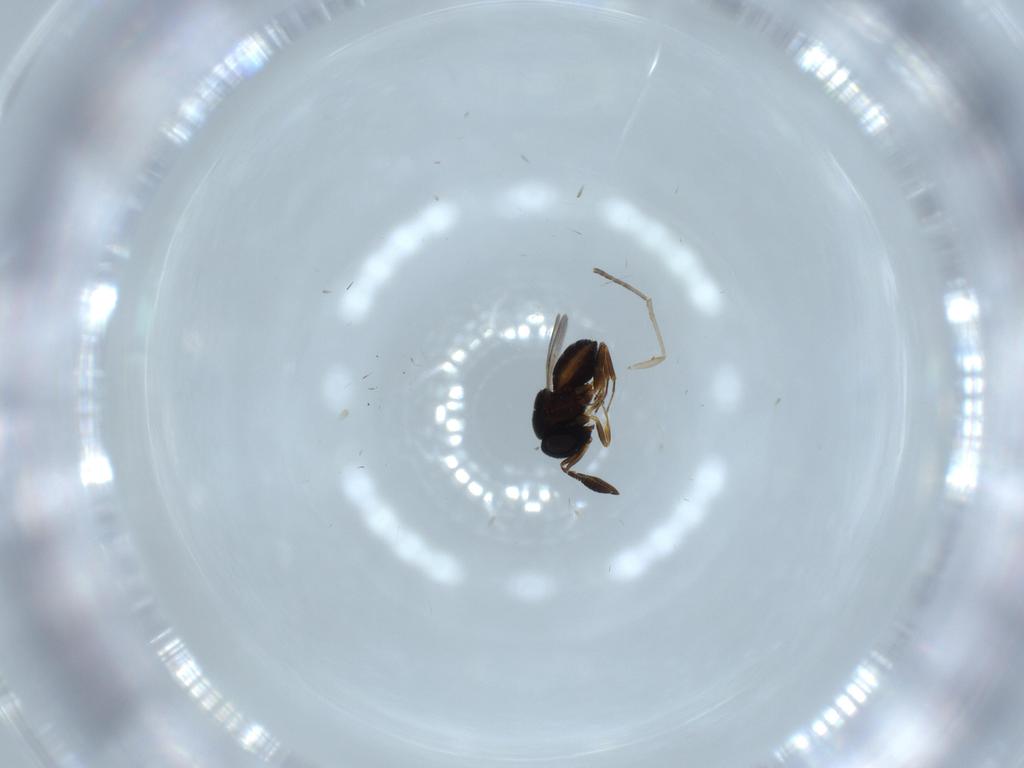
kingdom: Animalia
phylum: Arthropoda
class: Insecta
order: Hymenoptera
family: Scelionidae
